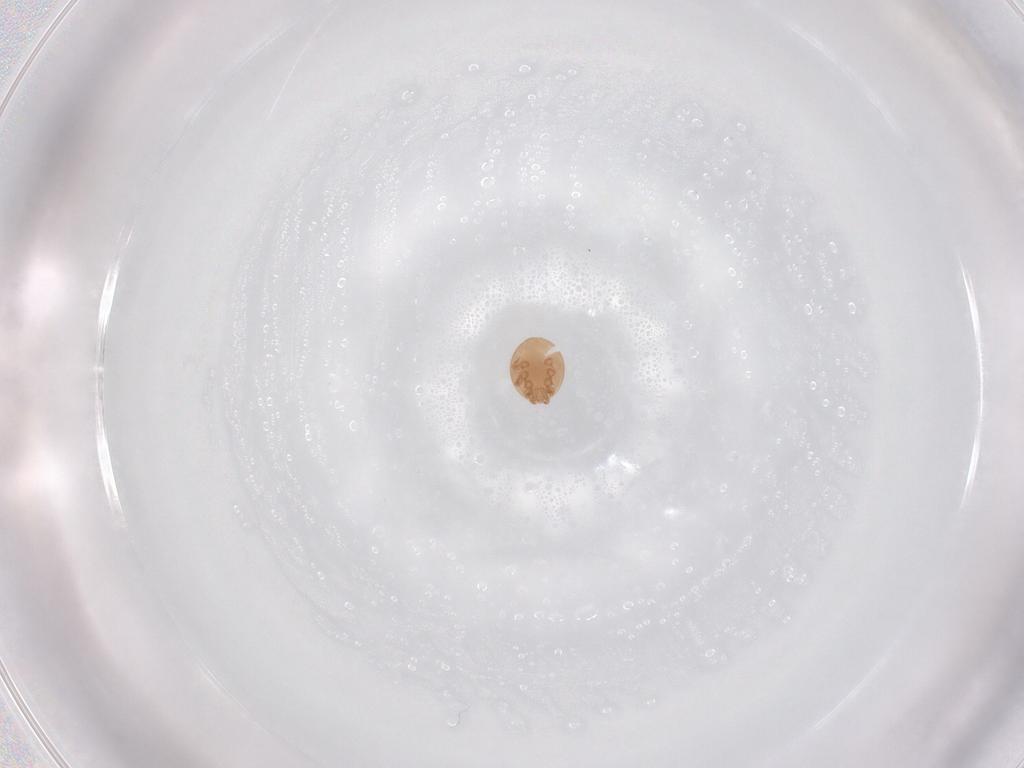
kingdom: Animalia
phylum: Arthropoda
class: Arachnida
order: Mesostigmata
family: Trematuridae
